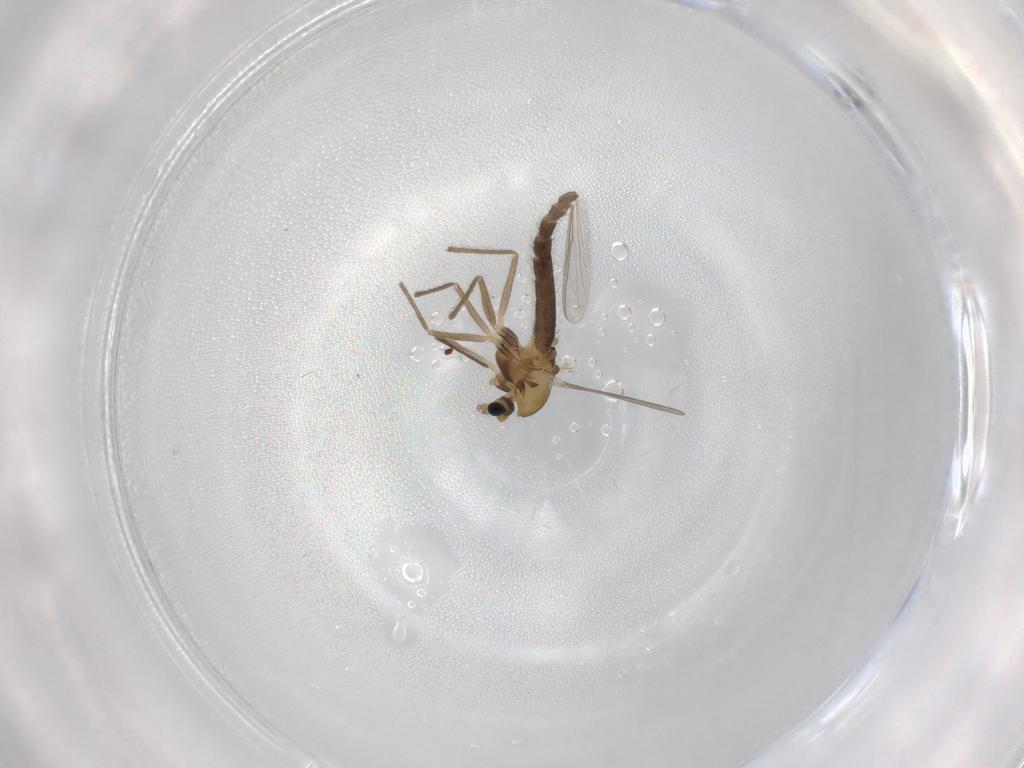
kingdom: Animalia
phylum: Arthropoda
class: Insecta
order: Diptera
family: Chironomidae
